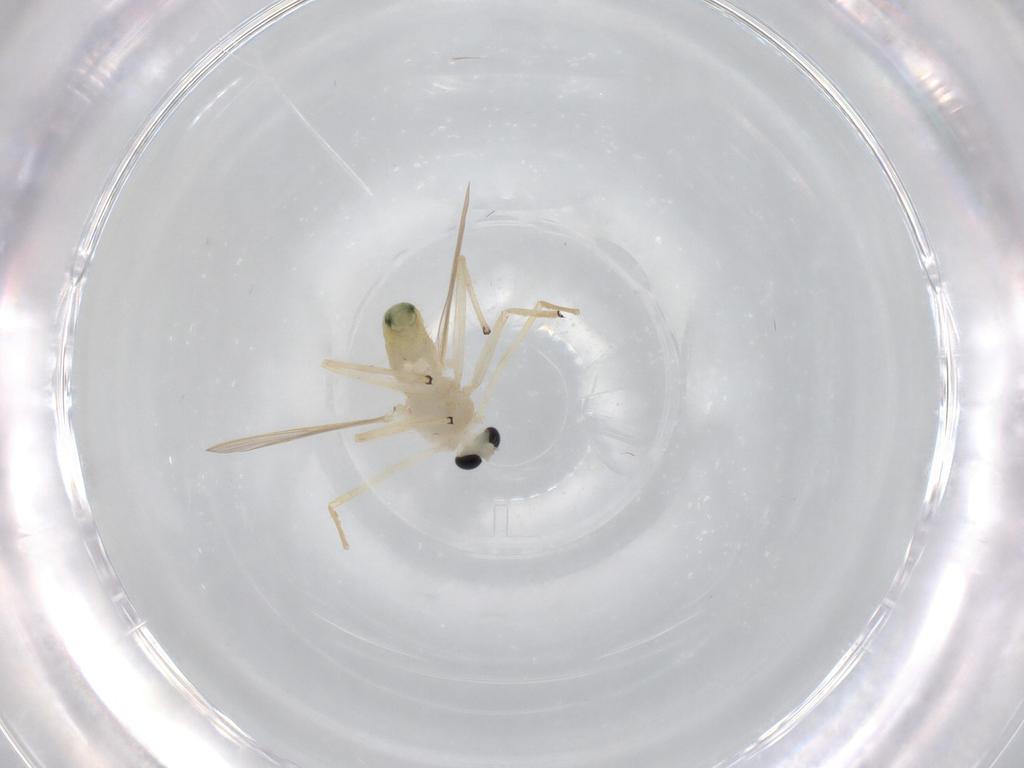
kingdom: Animalia
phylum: Arthropoda
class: Insecta
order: Diptera
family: Chironomidae
